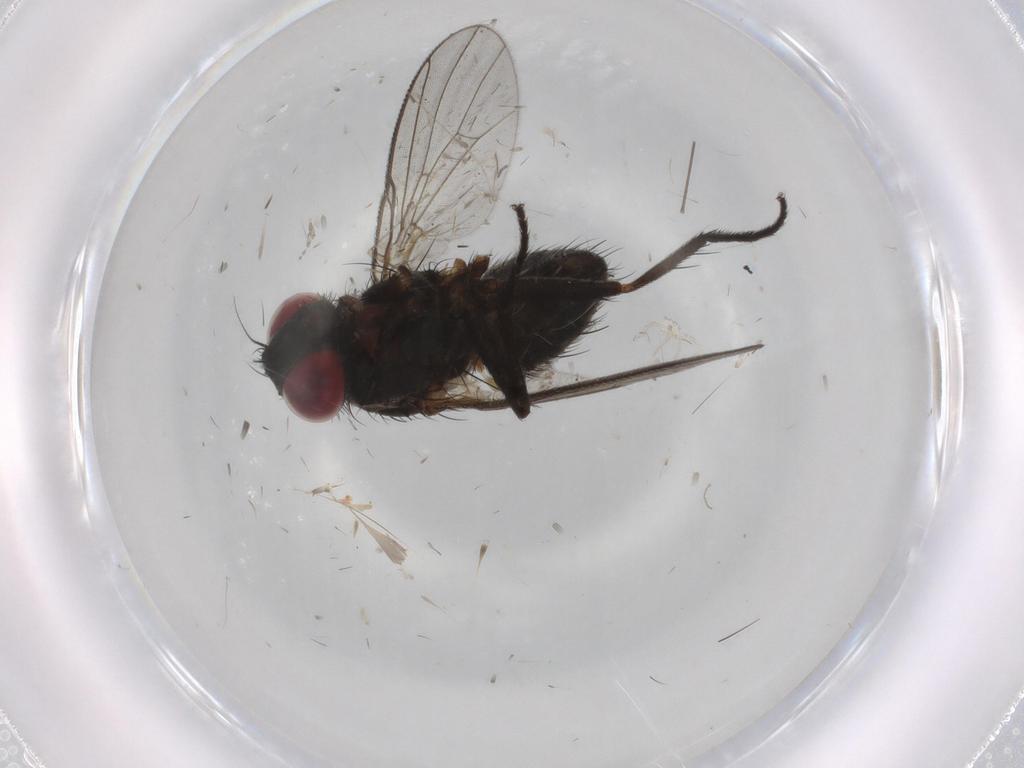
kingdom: Animalia
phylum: Arthropoda
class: Insecta
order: Diptera
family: Muscidae
